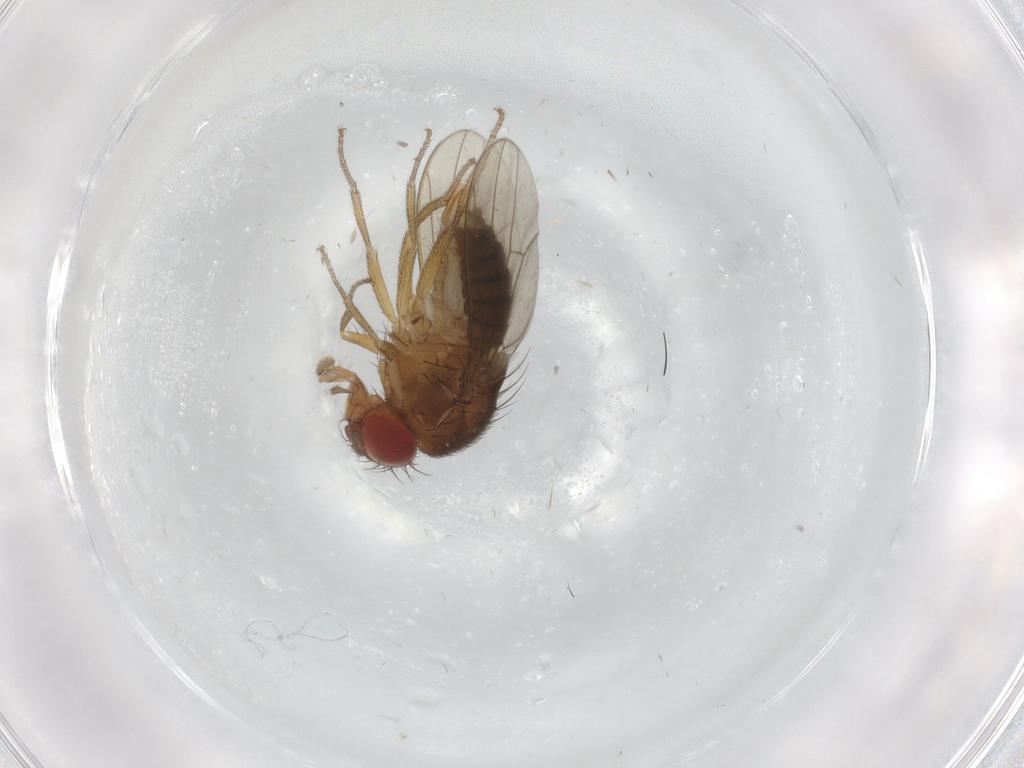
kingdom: Animalia
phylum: Arthropoda
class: Insecta
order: Diptera
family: Drosophilidae
